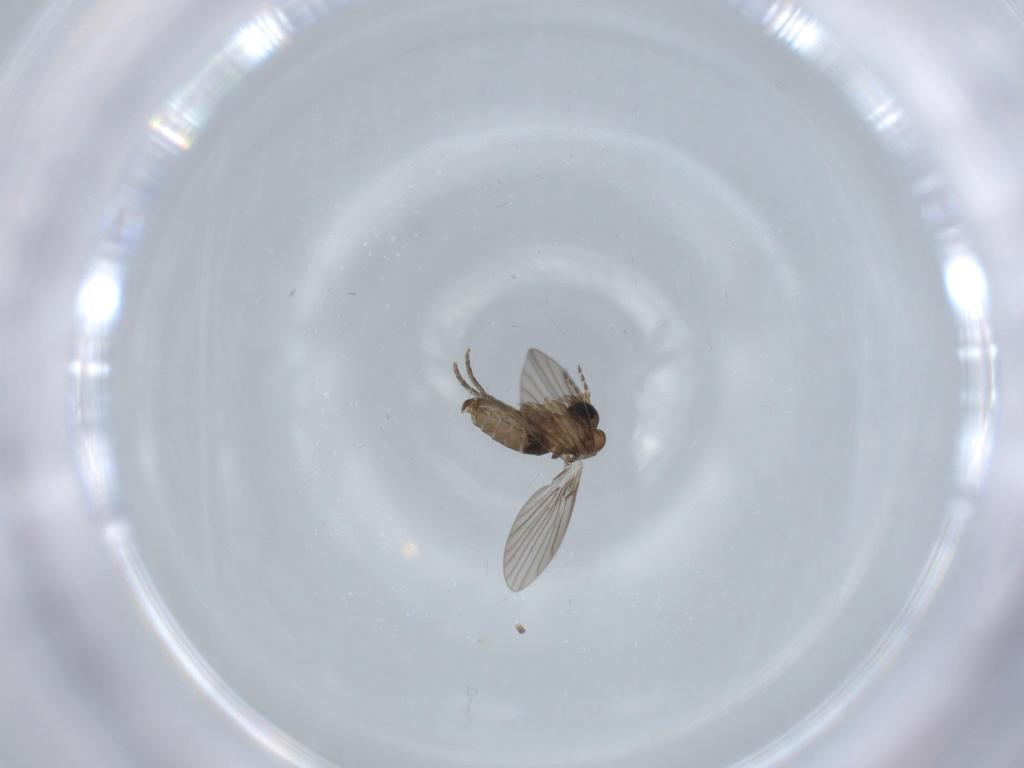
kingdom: Animalia
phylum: Arthropoda
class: Insecta
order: Diptera
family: Psychodidae
